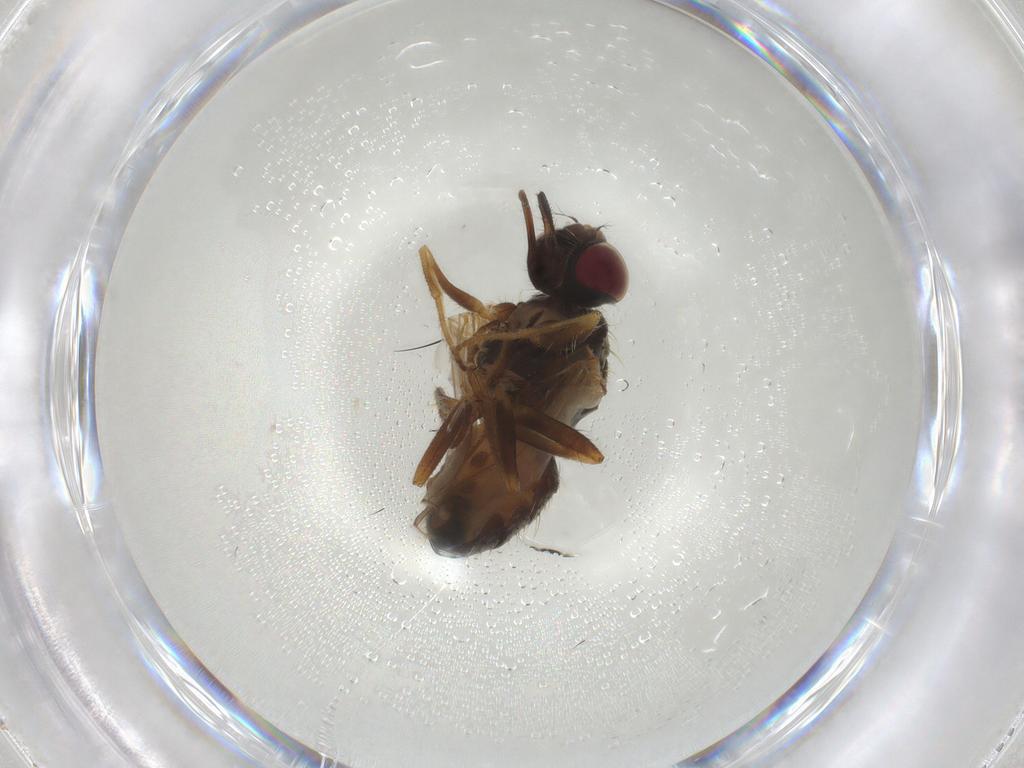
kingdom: Animalia
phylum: Arthropoda
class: Insecta
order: Diptera
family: Muscidae
